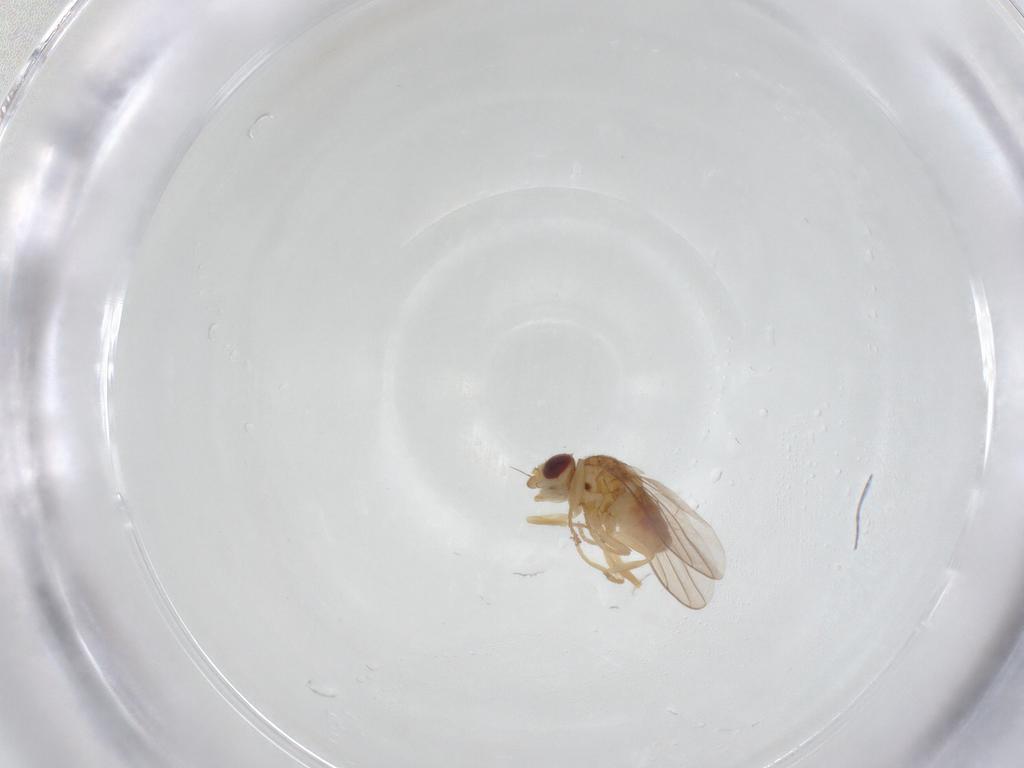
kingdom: Animalia
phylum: Arthropoda
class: Insecta
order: Diptera
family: Chloropidae
